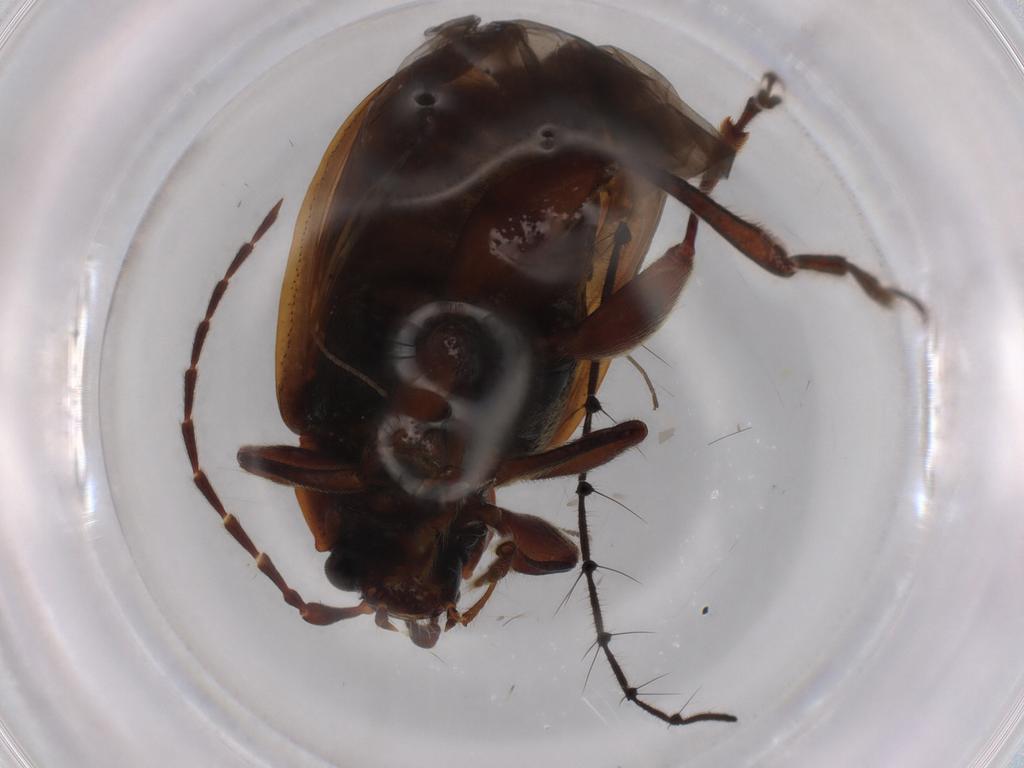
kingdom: Animalia
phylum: Arthropoda
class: Insecta
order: Coleoptera
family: Chrysomelidae
